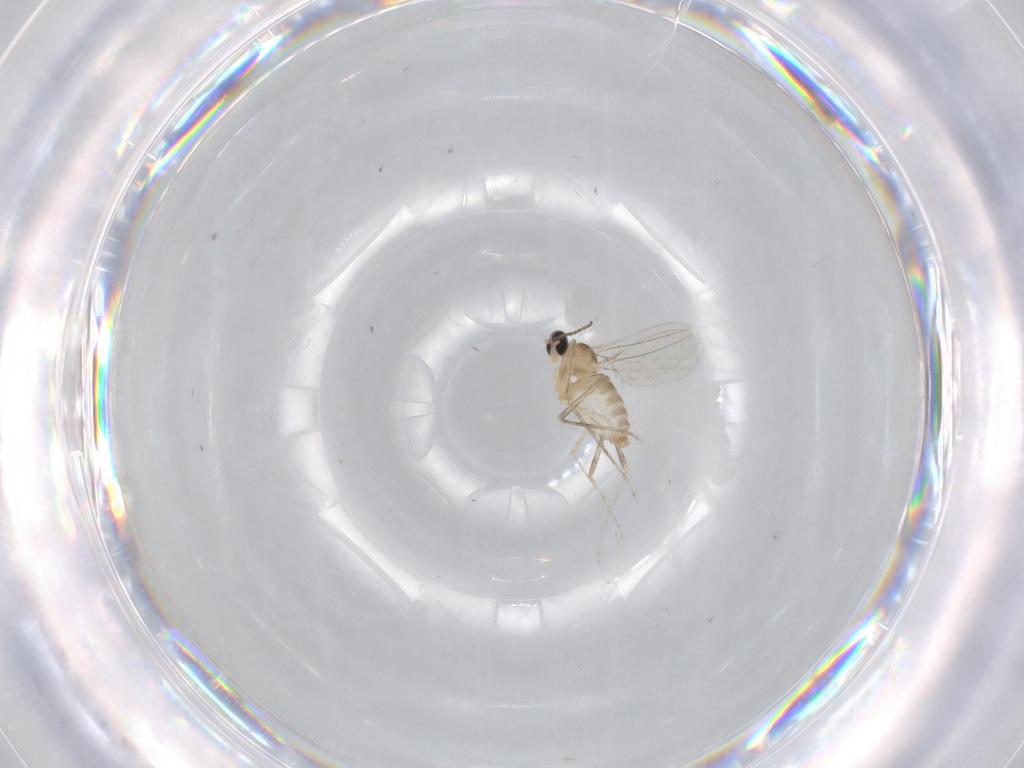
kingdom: Animalia
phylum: Arthropoda
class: Insecta
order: Diptera
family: Cecidomyiidae
